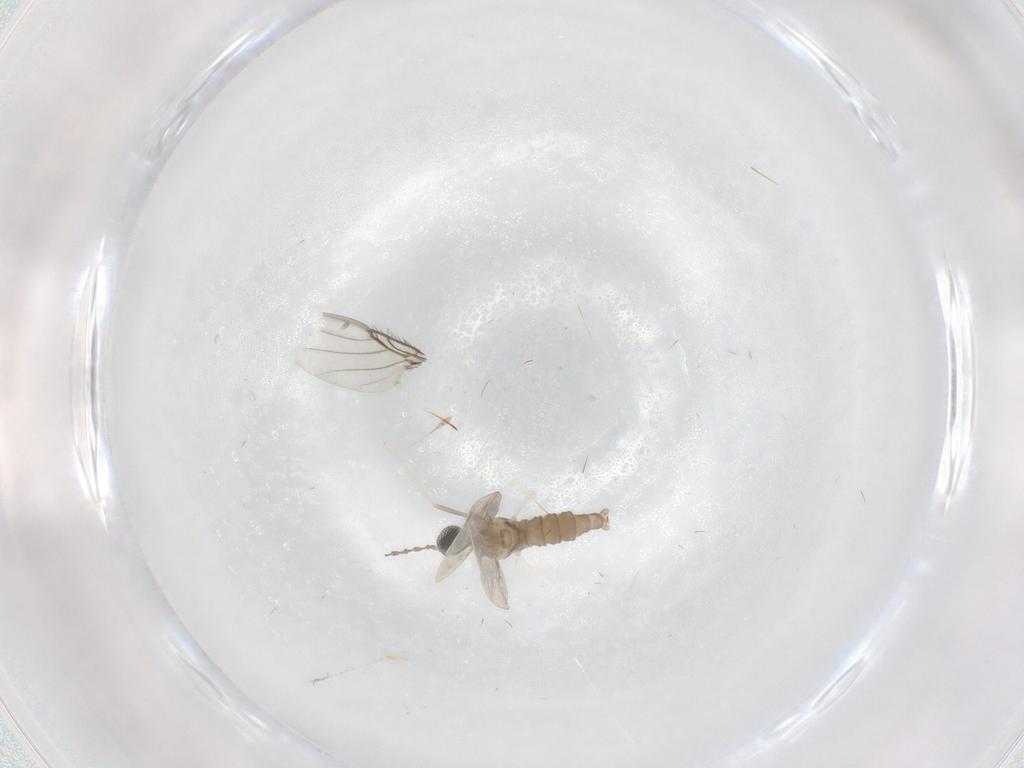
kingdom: Animalia
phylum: Arthropoda
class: Insecta
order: Diptera
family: Cecidomyiidae
